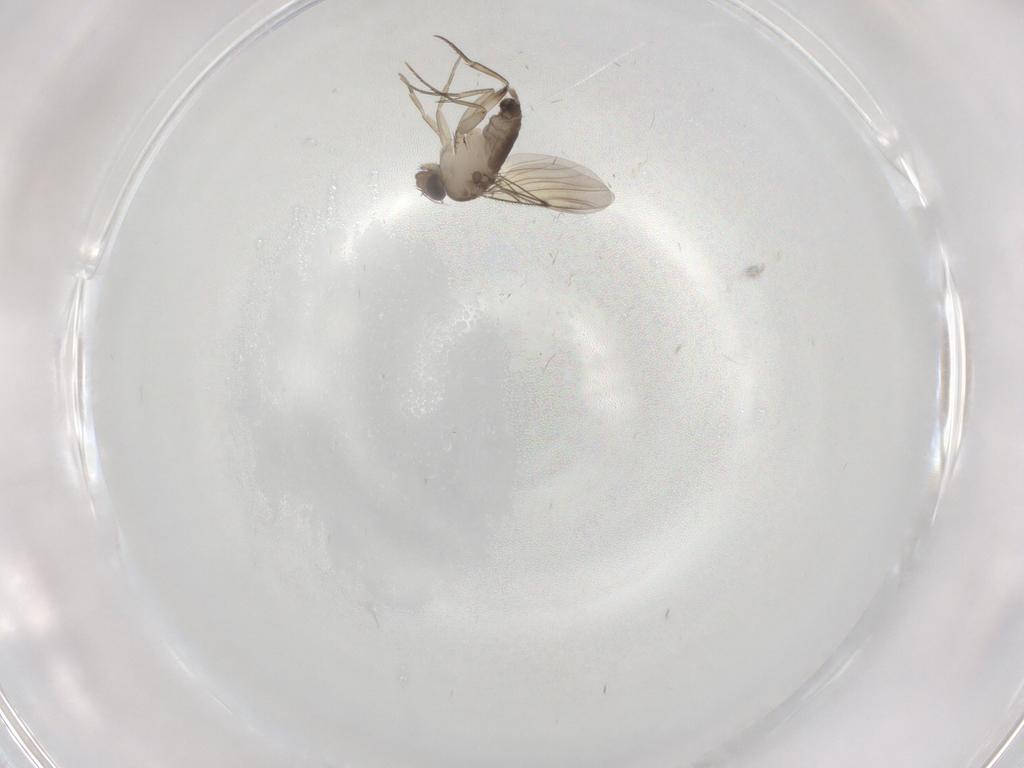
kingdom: Animalia
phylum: Arthropoda
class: Insecta
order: Diptera
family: Phoridae
